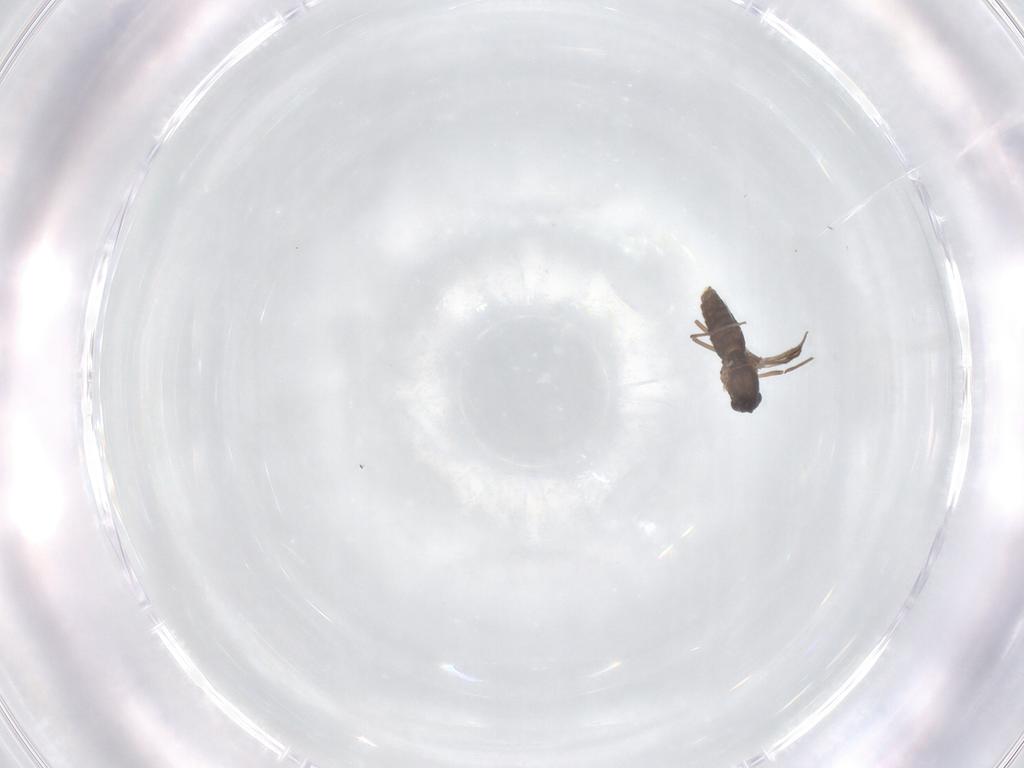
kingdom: Animalia
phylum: Arthropoda
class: Insecta
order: Diptera
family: Chironomidae
